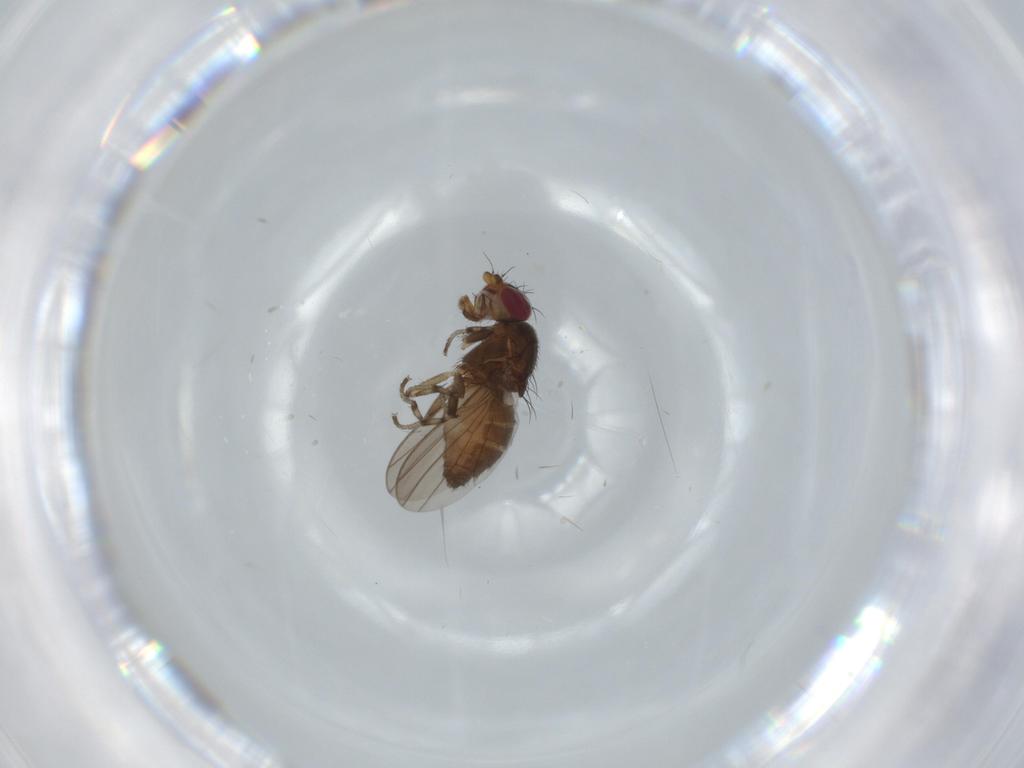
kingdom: Animalia
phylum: Arthropoda
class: Insecta
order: Diptera
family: Heleomyzidae
